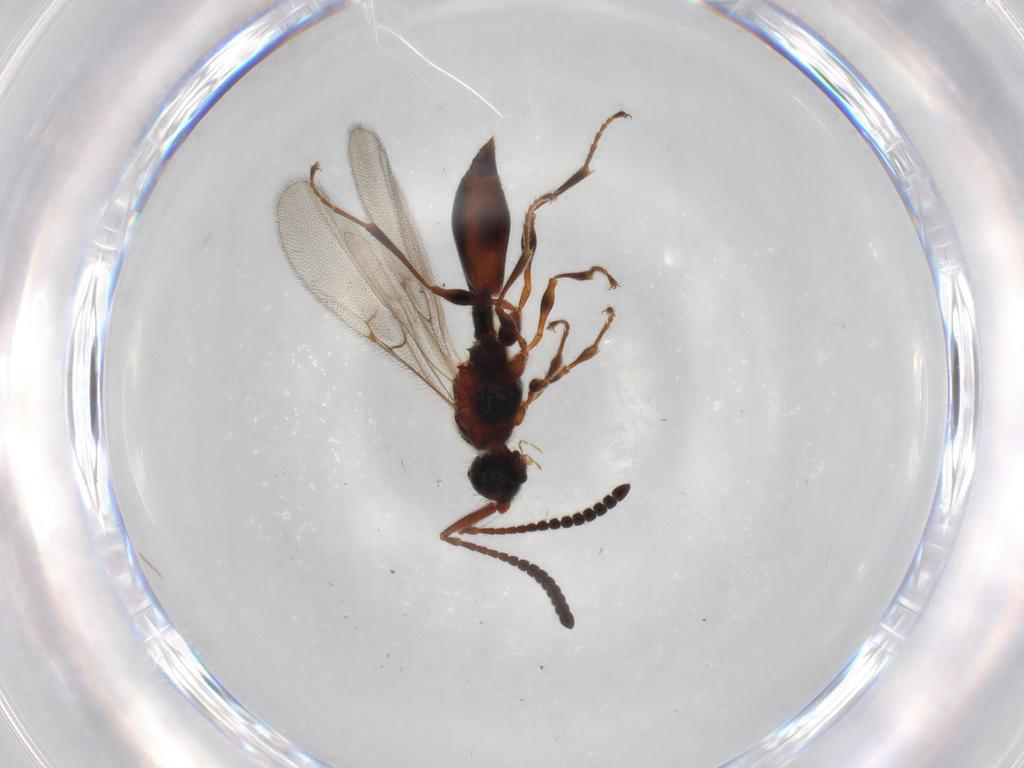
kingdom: Animalia
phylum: Arthropoda
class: Insecta
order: Hymenoptera
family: Diapriidae
